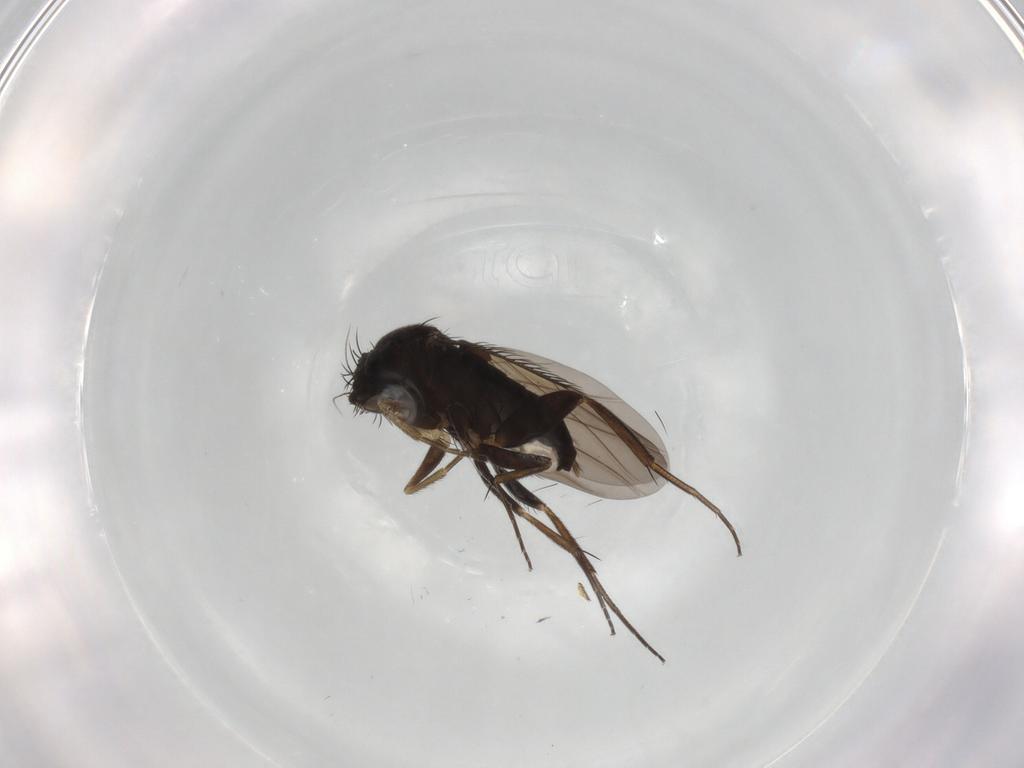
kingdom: Animalia
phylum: Arthropoda
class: Insecta
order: Diptera
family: Phoridae
